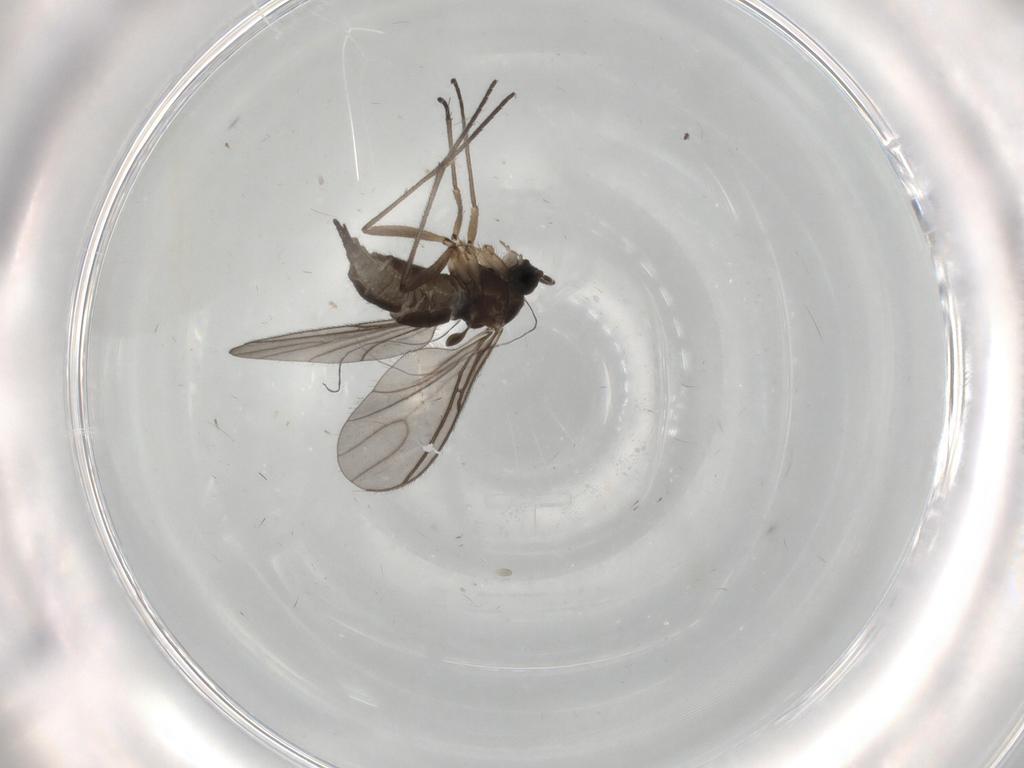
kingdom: Animalia
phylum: Arthropoda
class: Insecta
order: Diptera
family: Sciaridae
